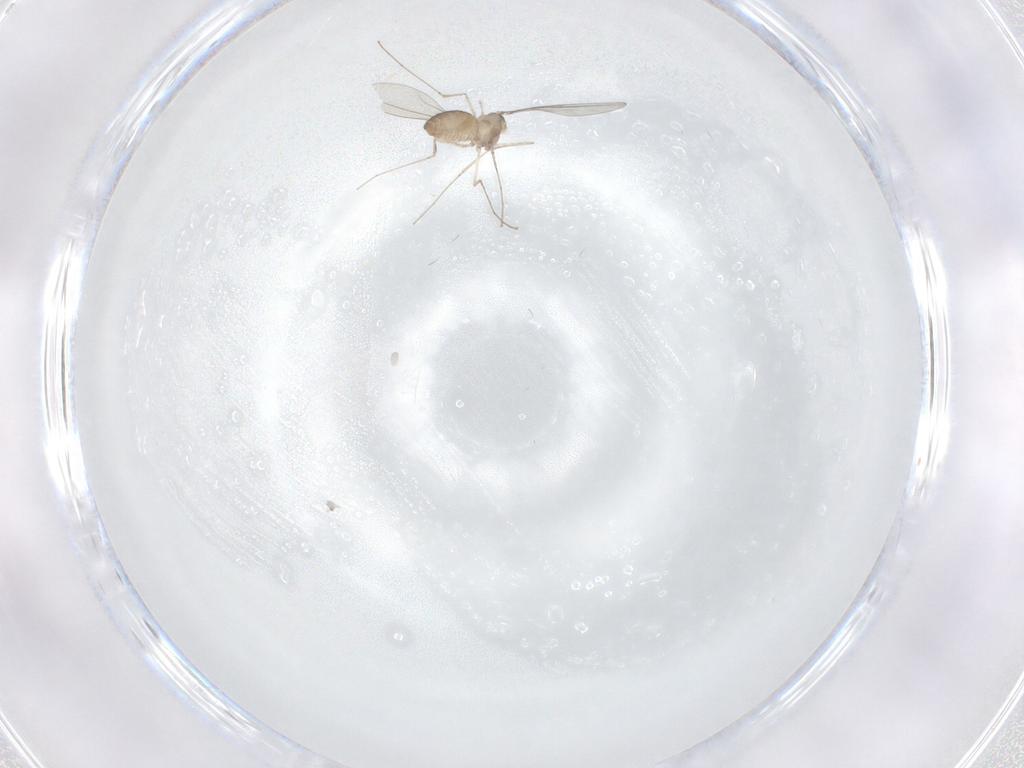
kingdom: Animalia
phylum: Arthropoda
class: Insecta
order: Diptera
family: Cecidomyiidae
